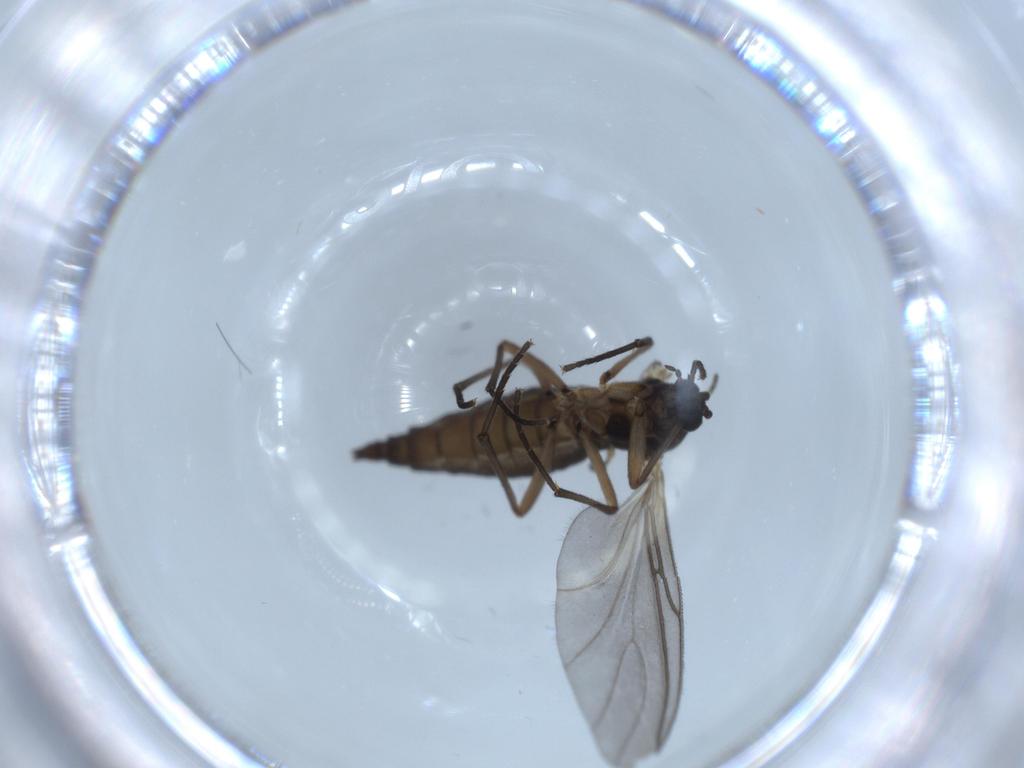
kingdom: Animalia
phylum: Arthropoda
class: Insecta
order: Diptera
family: Sciaridae
